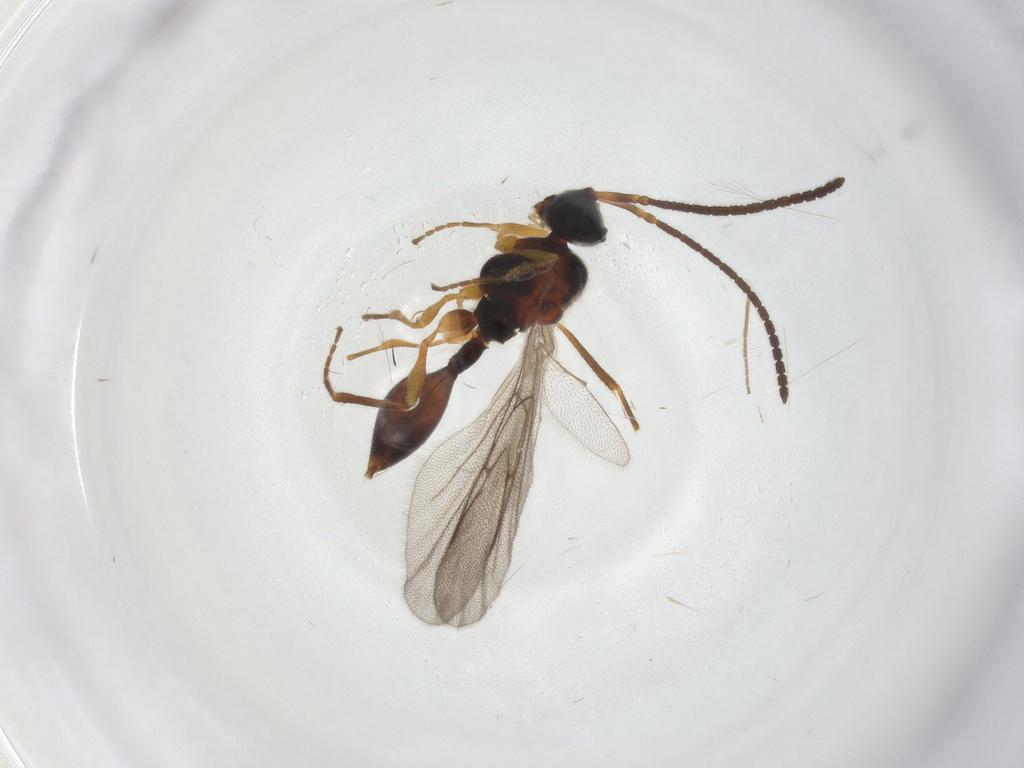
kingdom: Animalia
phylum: Arthropoda
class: Insecta
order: Hymenoptera
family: Diapriidae
